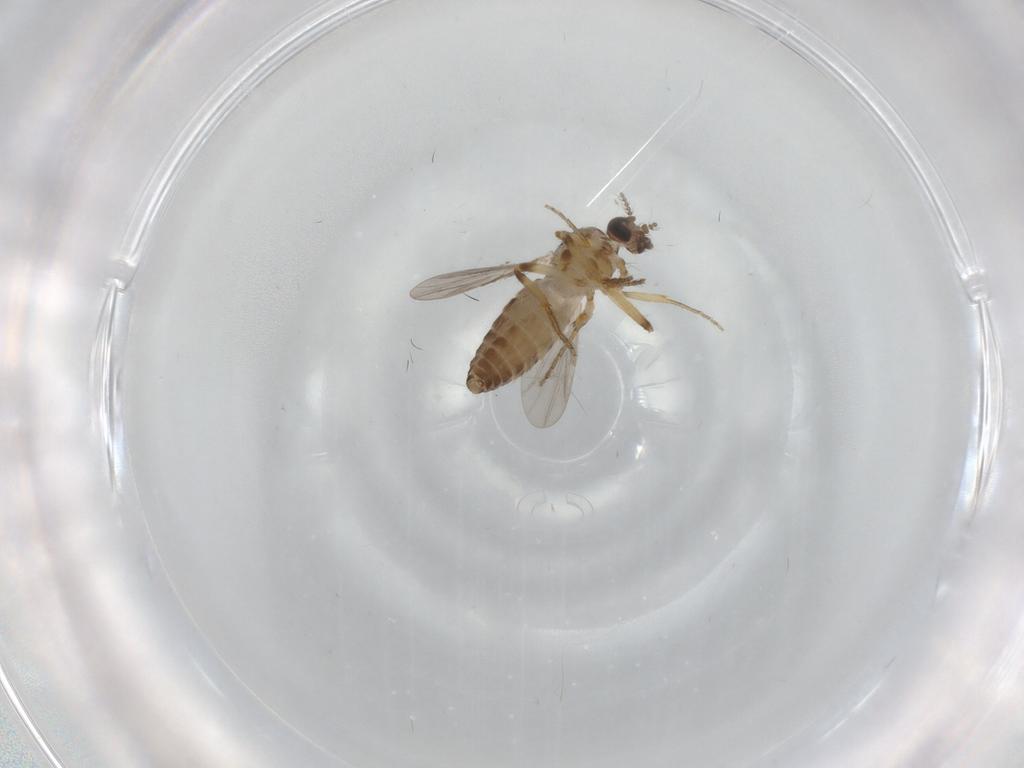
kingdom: Animalia
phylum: Arthropoda
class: Insecta
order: Diptera
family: Ceratopogonidae
